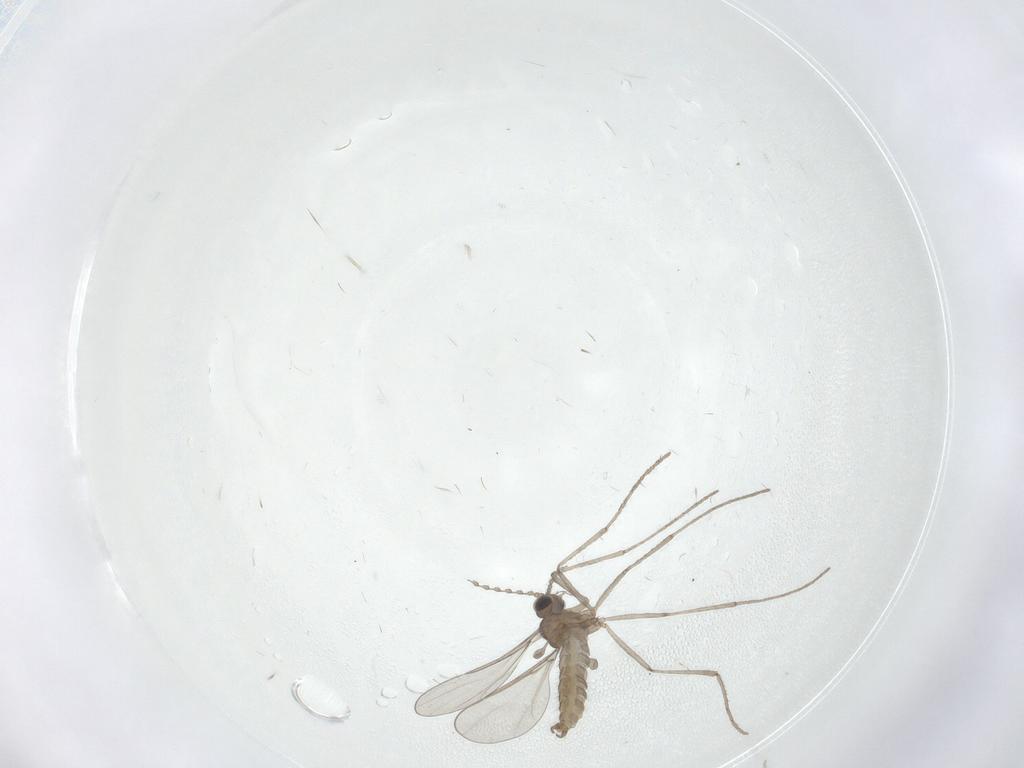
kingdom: Animalia
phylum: Arthropoda
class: Insecta
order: Diptera
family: Cecidomyiidae
